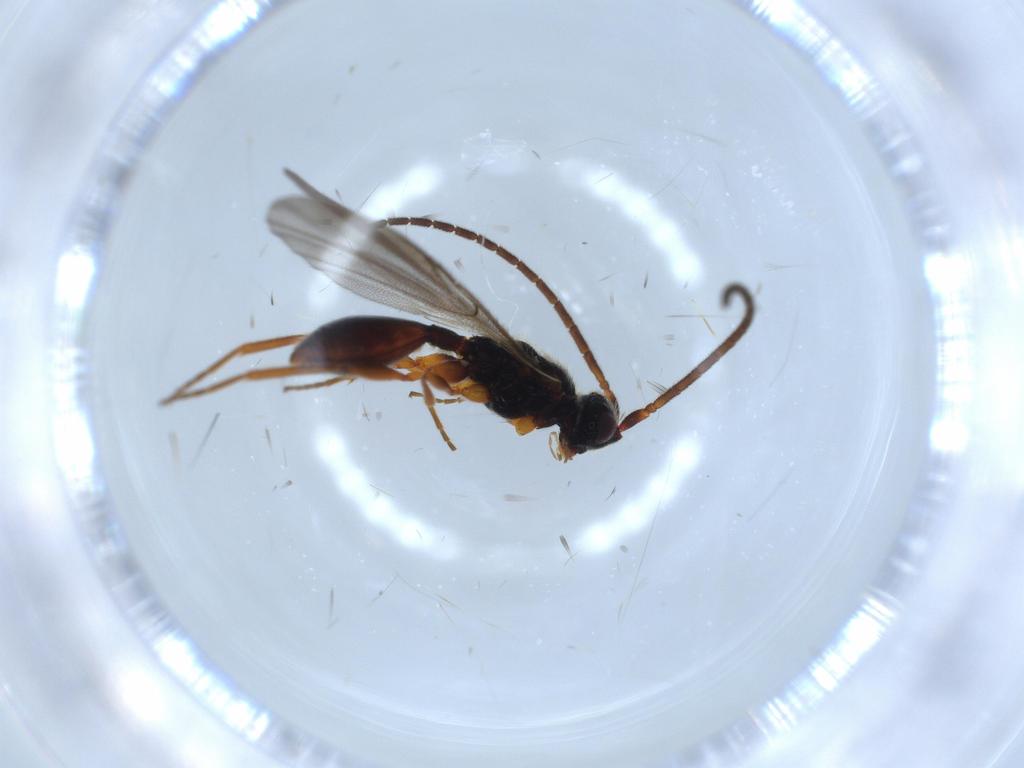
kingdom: Animalia
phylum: Arthropoda
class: Insecta
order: Hymenoptera
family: Diapriidae
